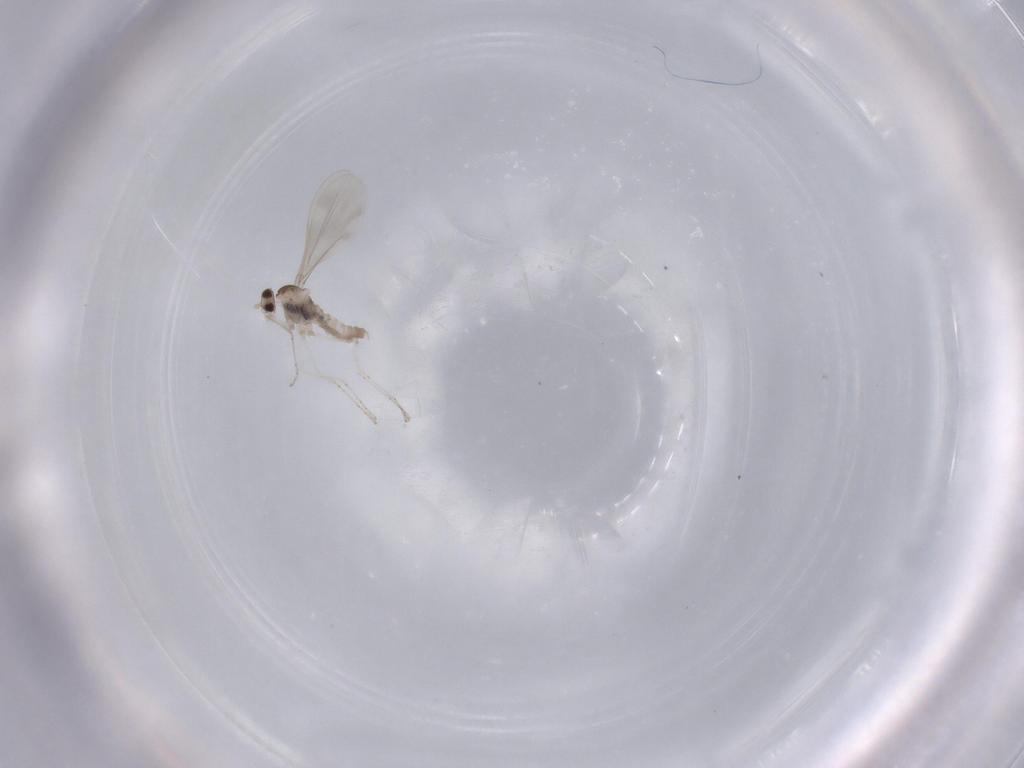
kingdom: Animalia
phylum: Arthropoda
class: Insecta
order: Diptera
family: Cecidomyiidae
